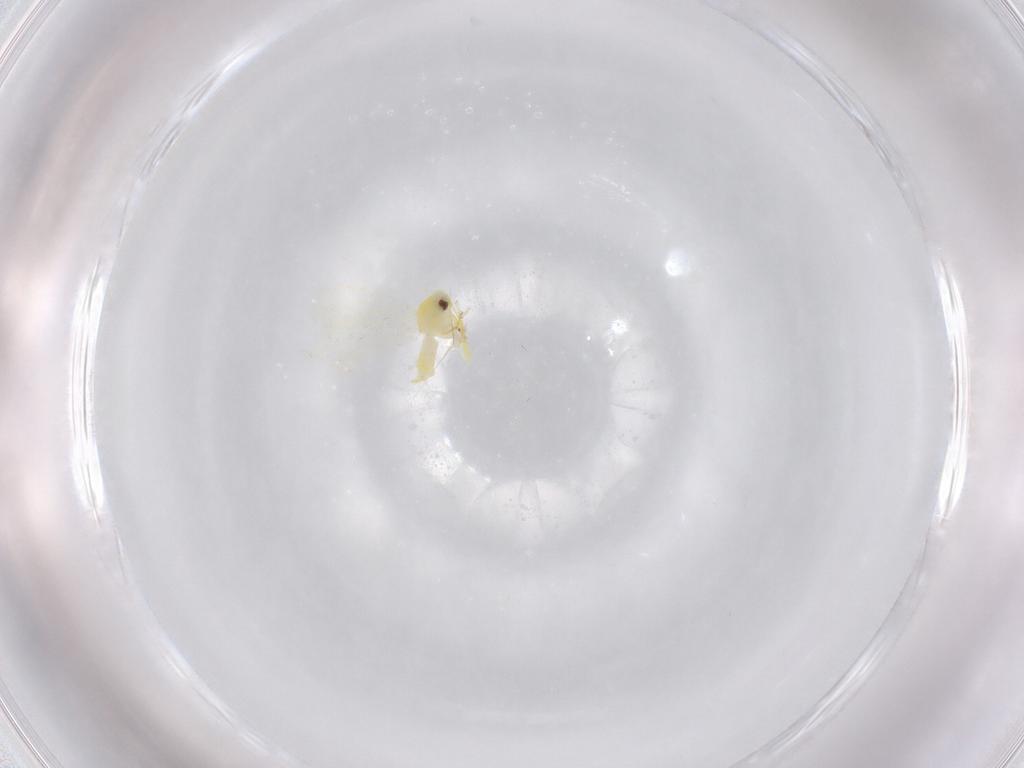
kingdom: Animalia
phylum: Arthropoda
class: Insecta
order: Hemiptera
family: Aleyrodidae
